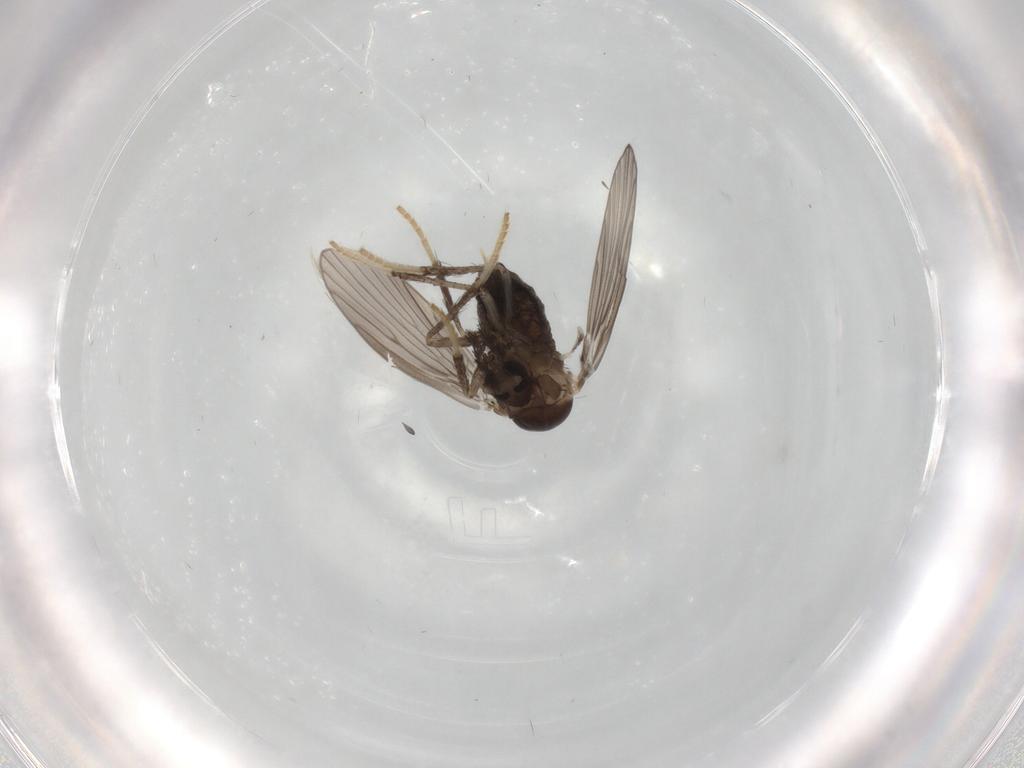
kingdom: Animalia
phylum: Arthropoda
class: Insecta
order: Diptera
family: Psychodidae
